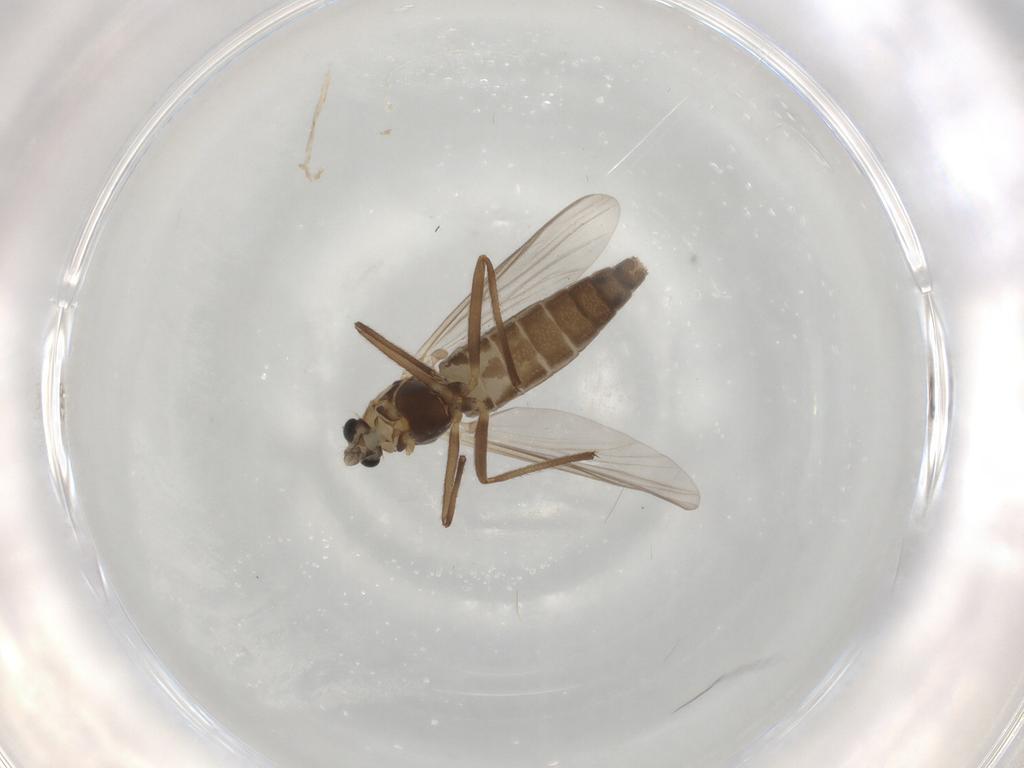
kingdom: Animalia
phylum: Arthropoda
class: Insecta
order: Diptera
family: Chironomidae
